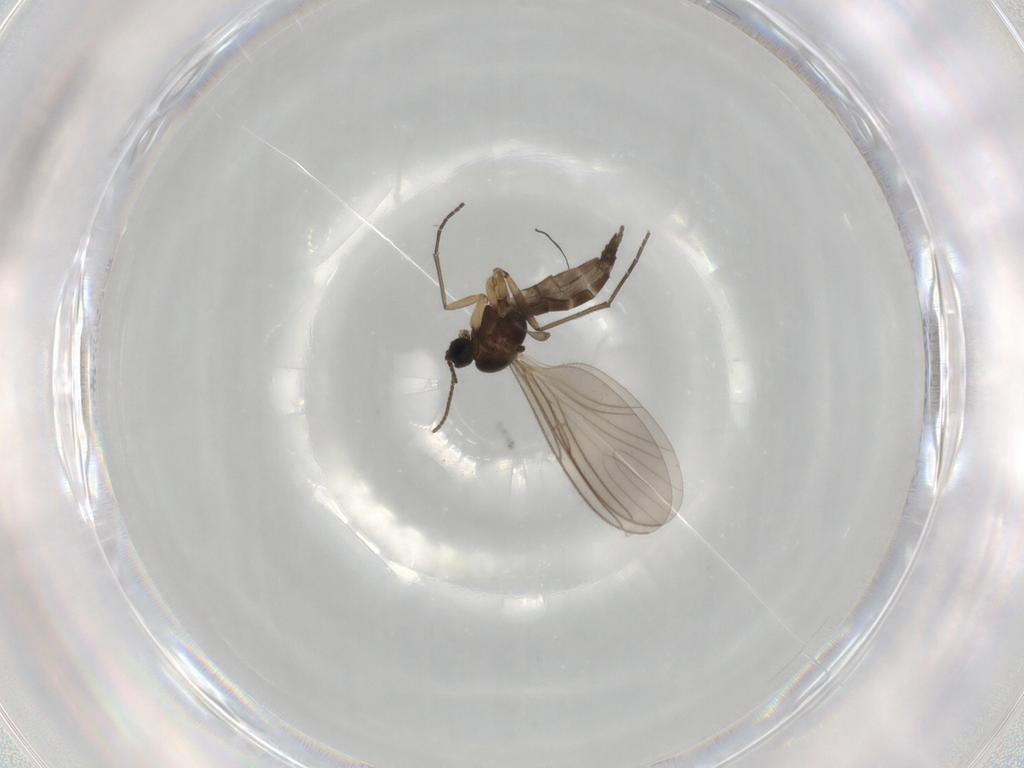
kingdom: Animalia
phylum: Arthropoda
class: Insecta
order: Diptera
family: Sciaridae
